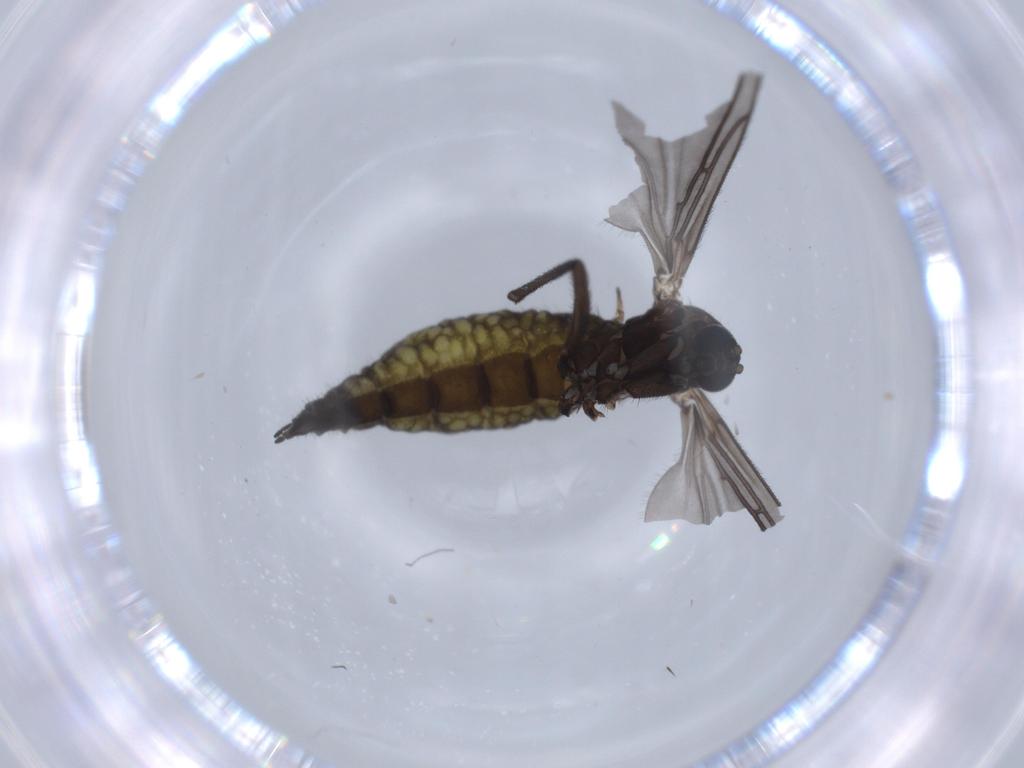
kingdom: Animalia
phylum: Arthropoda
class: Insecta
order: Diptera
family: Sciaridae
